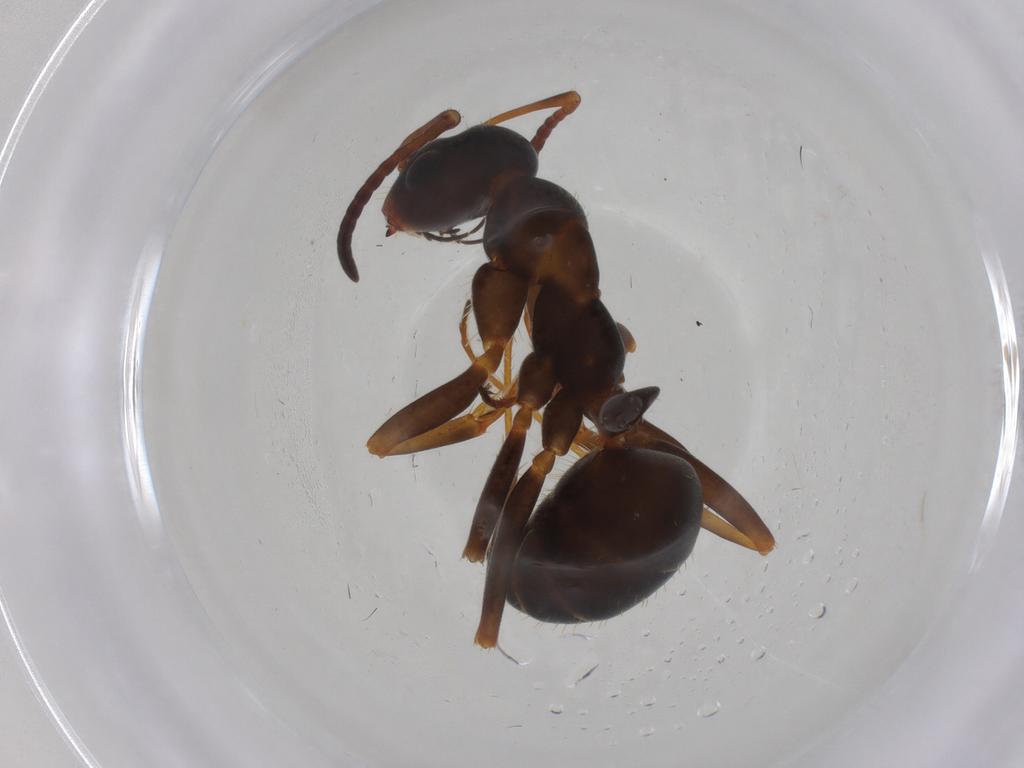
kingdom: Animalia
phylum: Arthropoda
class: Insecta
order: Hymenoptera
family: Formicidae
